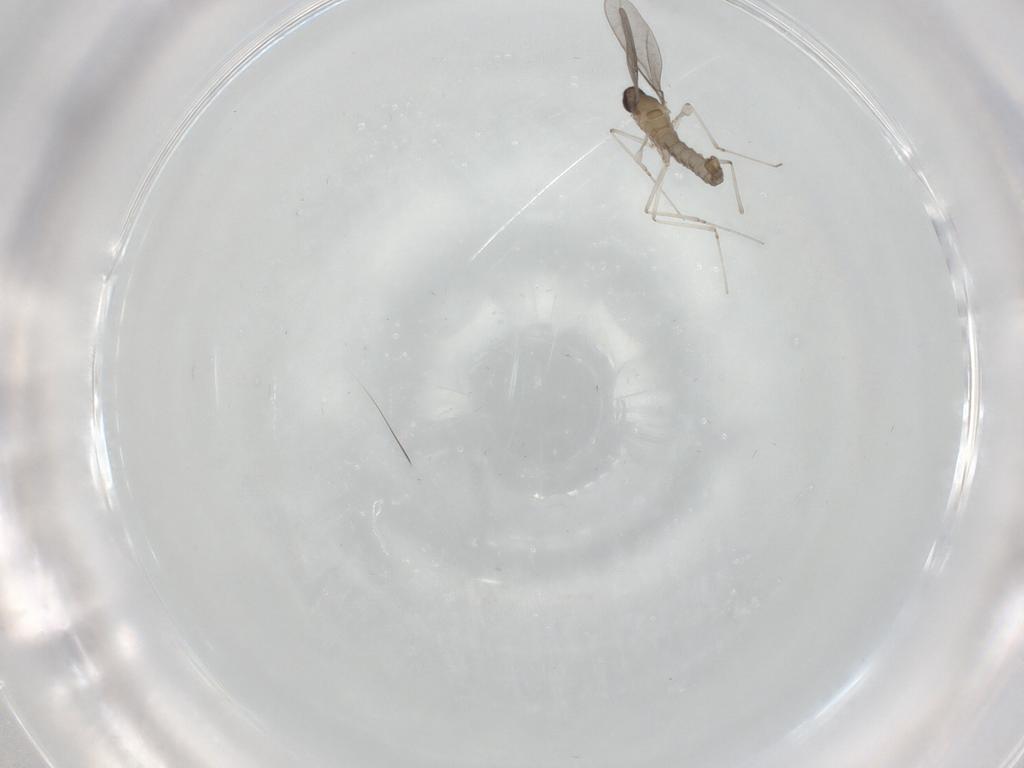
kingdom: Animalia
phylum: Arthropoda
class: Insecta
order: Diptera
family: Cecidomyiidae
